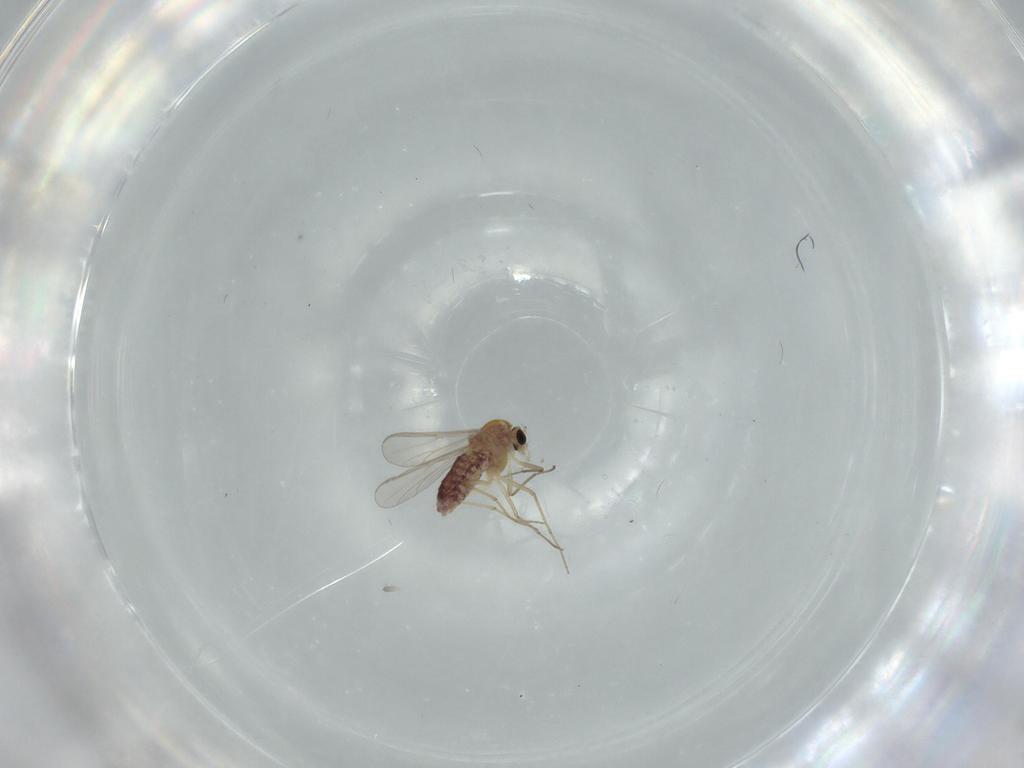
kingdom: Animalia
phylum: Arthropoda
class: Insecta
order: Diptera
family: Chironomidae
